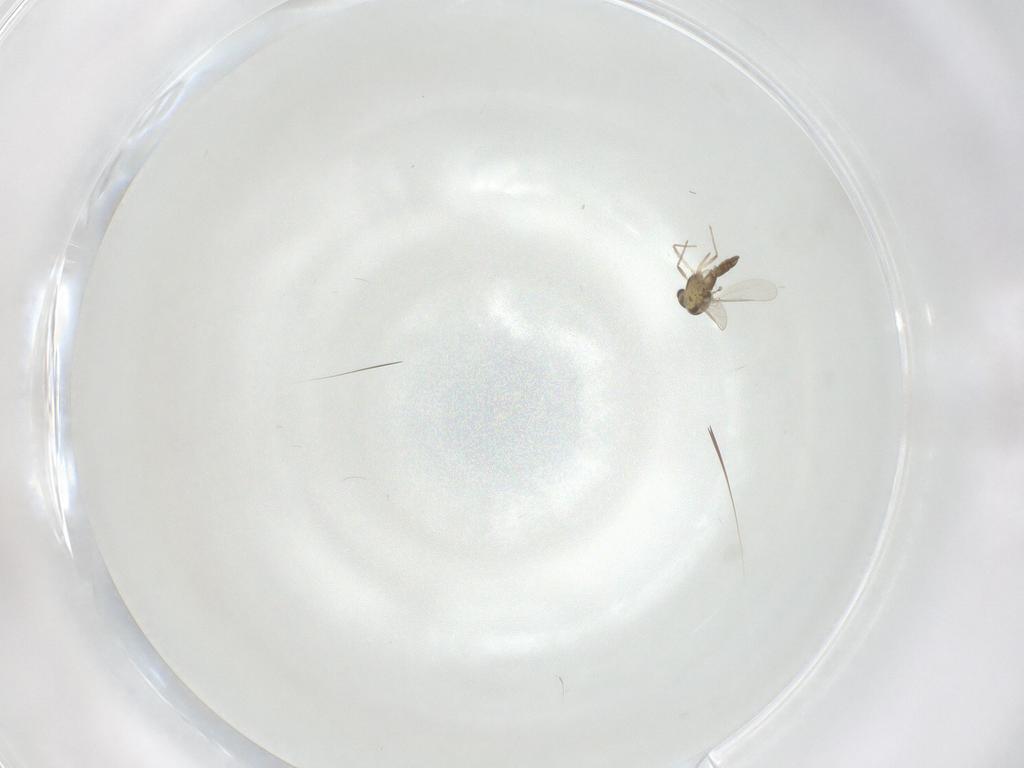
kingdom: Animalia
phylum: Arthropoda
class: Insecta
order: Diptera
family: Chironomidae
